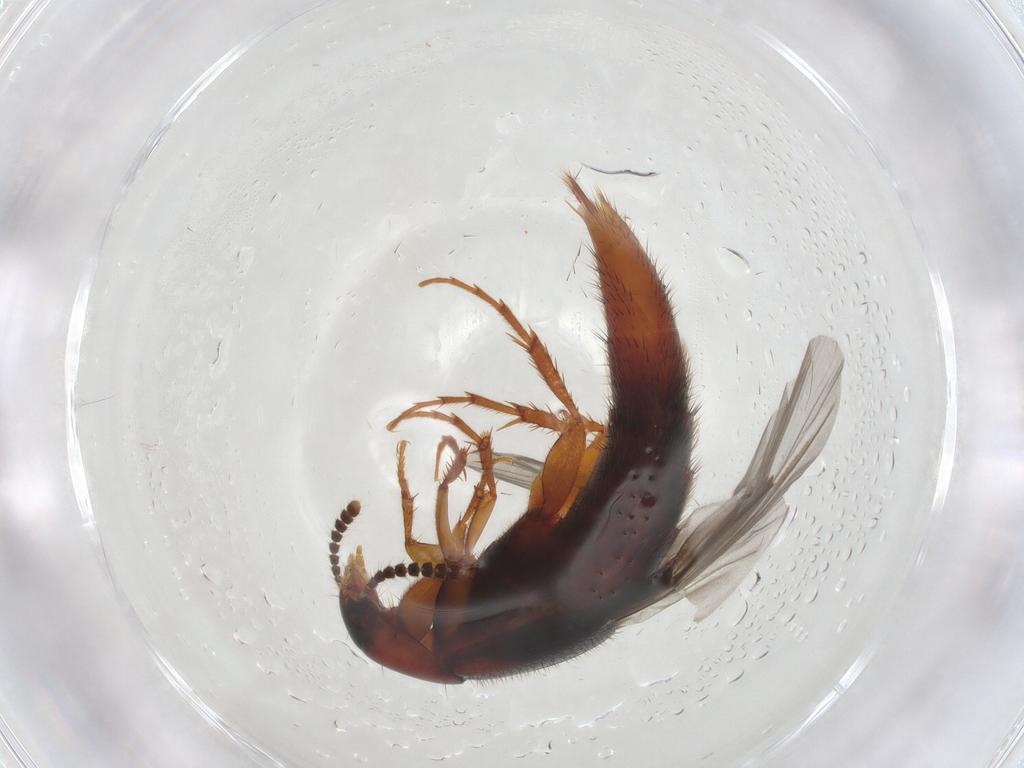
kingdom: Animalia
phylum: Arthropoda
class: Insecta
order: Coleoptera
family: Staphylinidae
